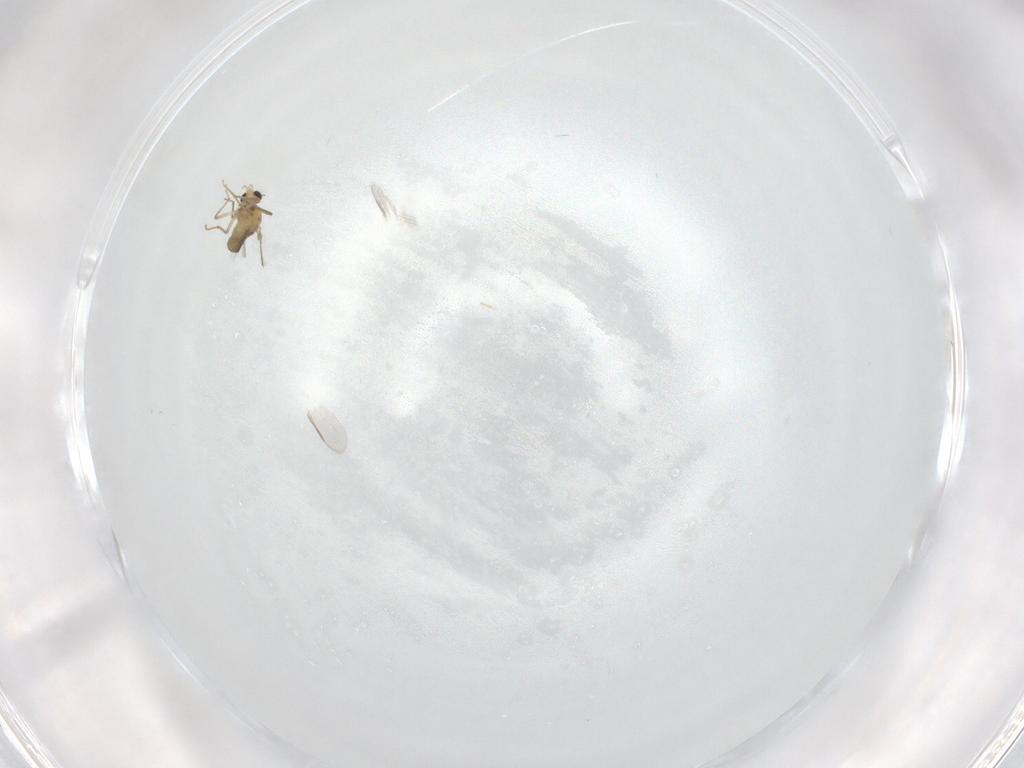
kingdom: Animalia
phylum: Arthropoda
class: Insecta
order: Diptera
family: Chironomidae
